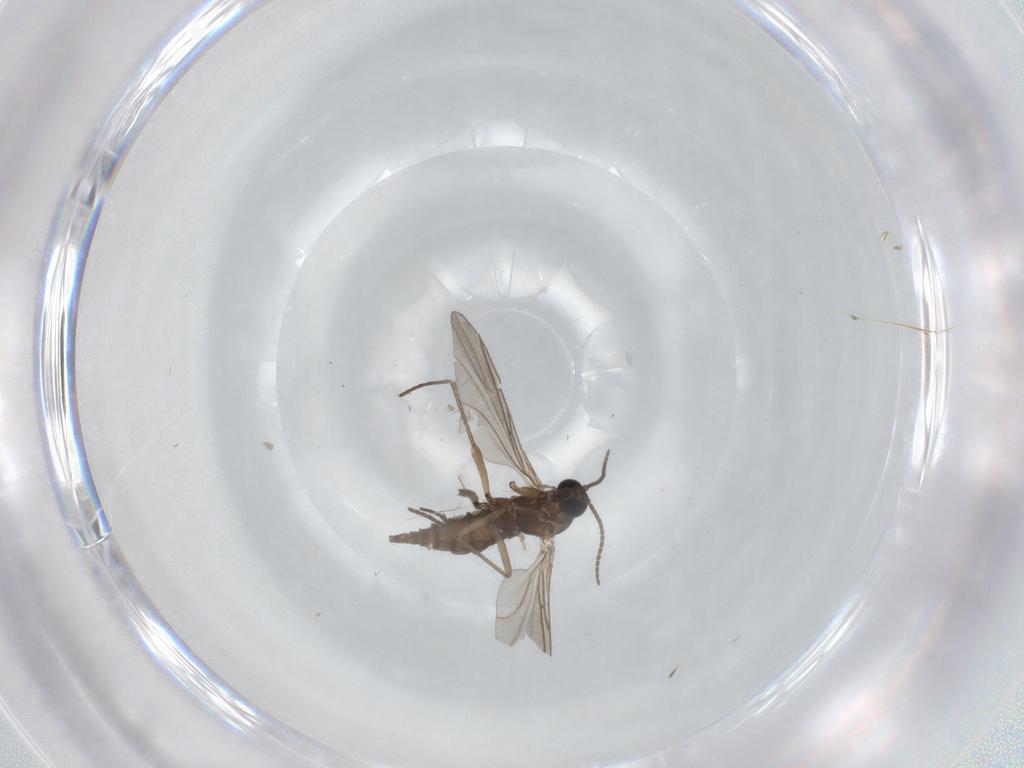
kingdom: Animalia
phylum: Arthropoda
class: Insecta
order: Diptera
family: Sciaridae
